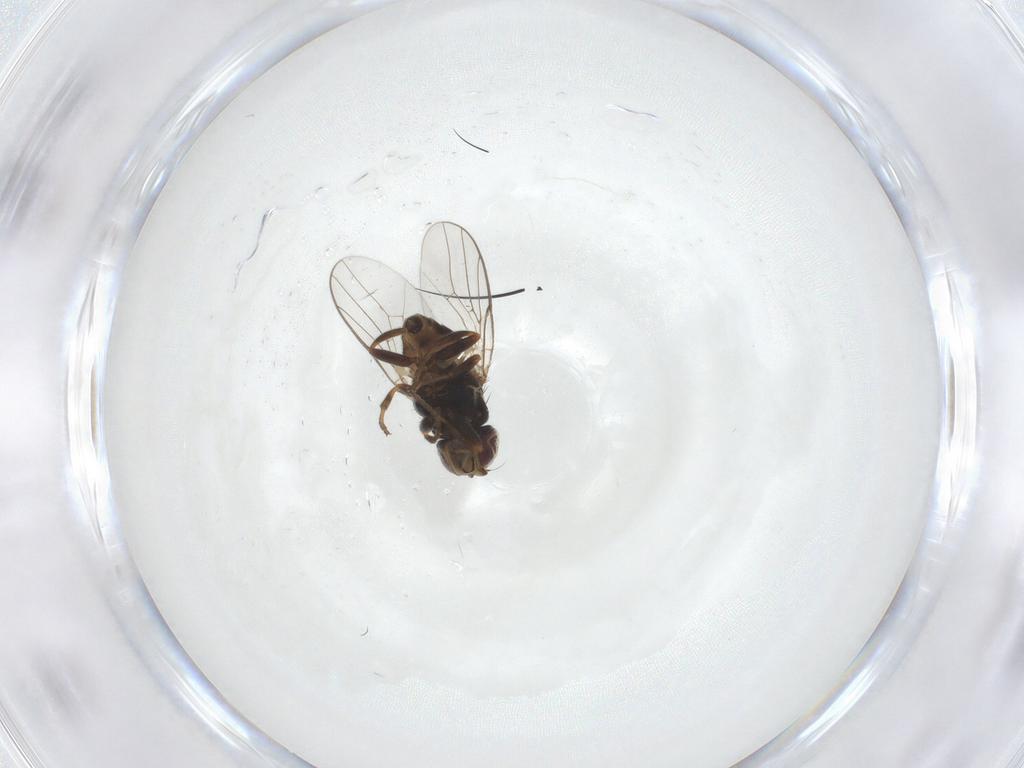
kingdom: Animalia
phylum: Arthropoda
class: Insecta
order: Diptera
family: Chloropidae
